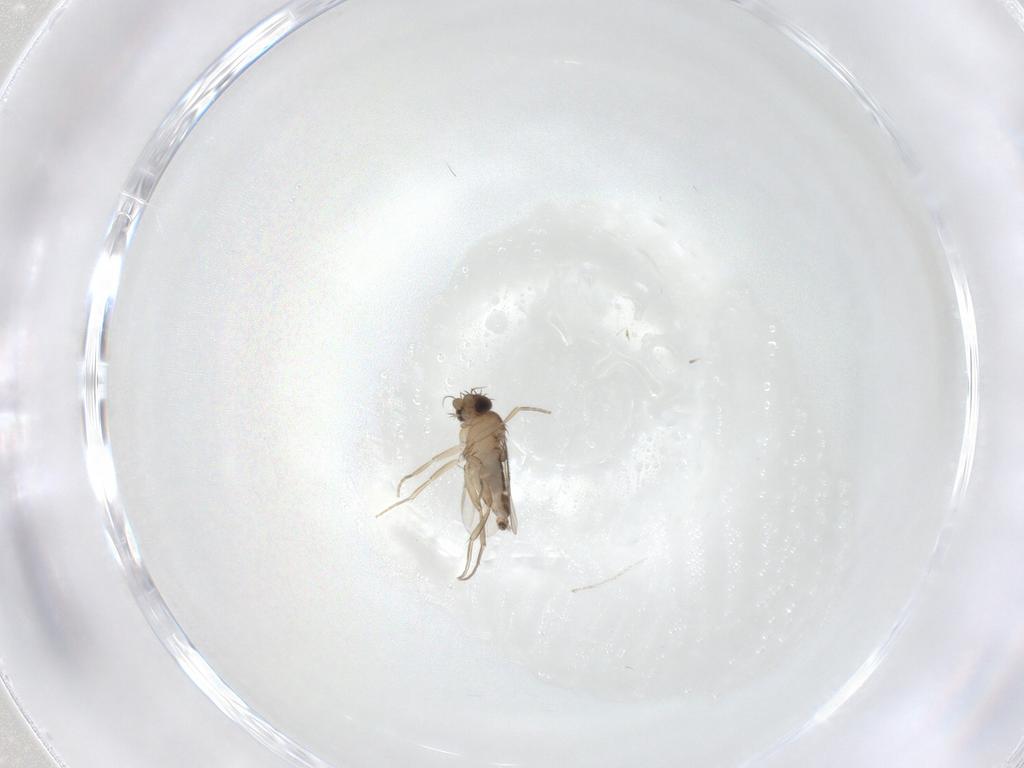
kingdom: Animalia
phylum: Arthropoda
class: Insecta
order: Diptera
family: Phoridae
